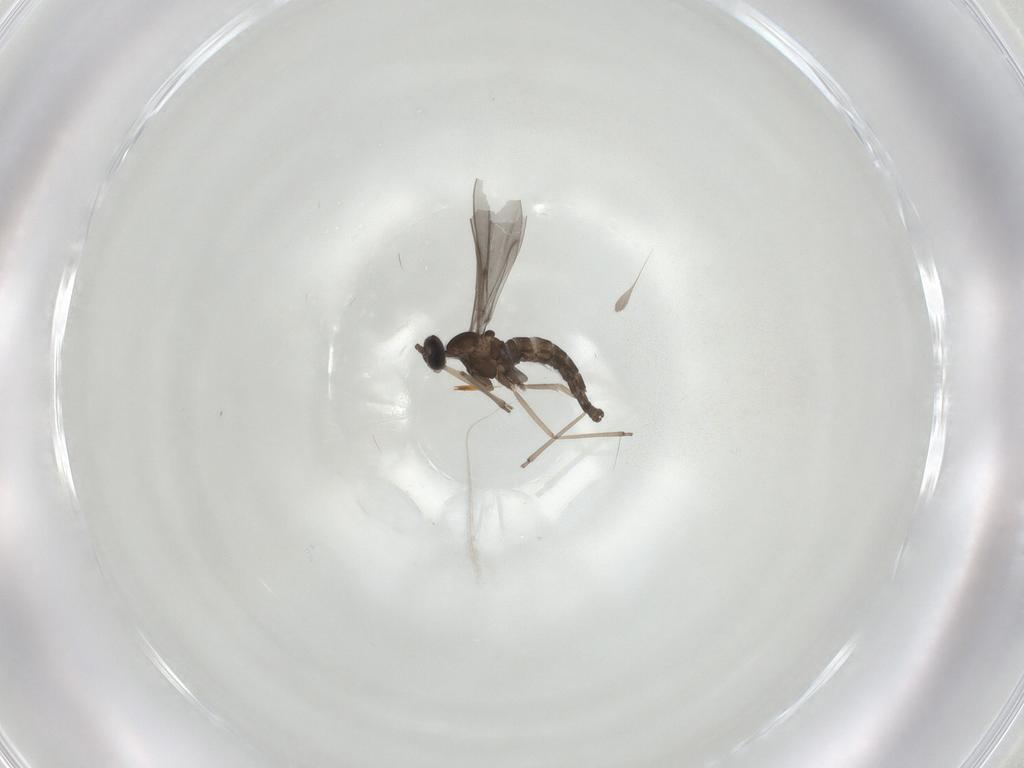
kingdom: Animalia
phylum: Arthropoda
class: Insecta
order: Diptera
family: Cecidomyiidae
